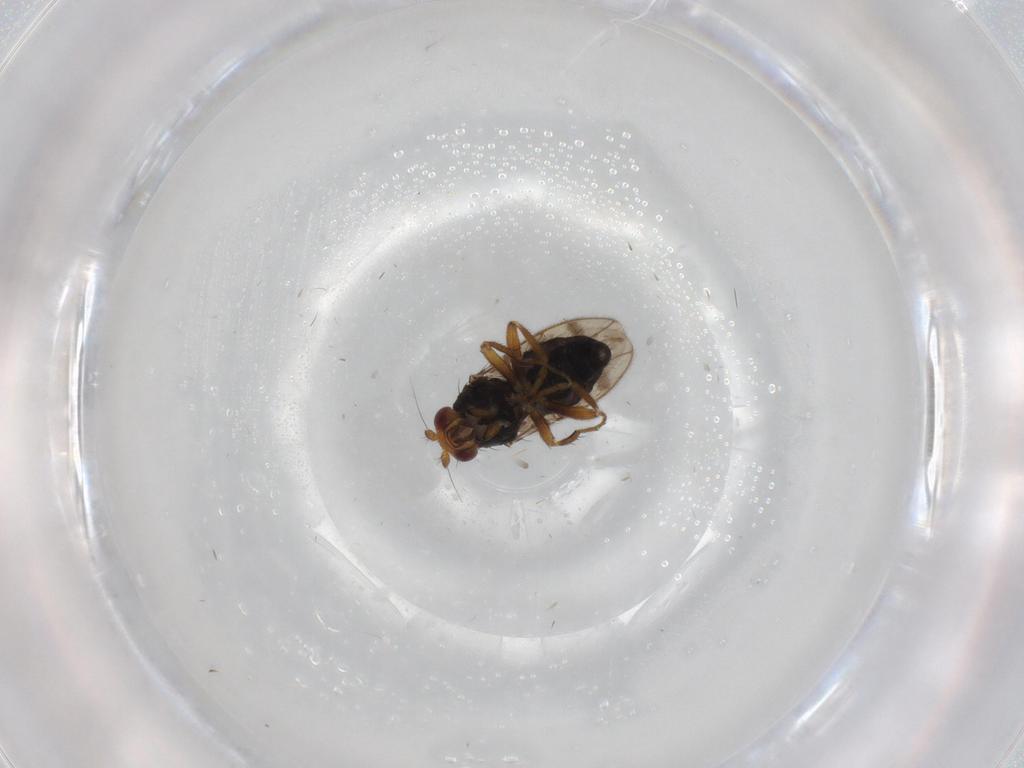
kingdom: Animalia
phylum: Arthropoda
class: Insecta
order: Diptera
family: Sphaeroceridae
